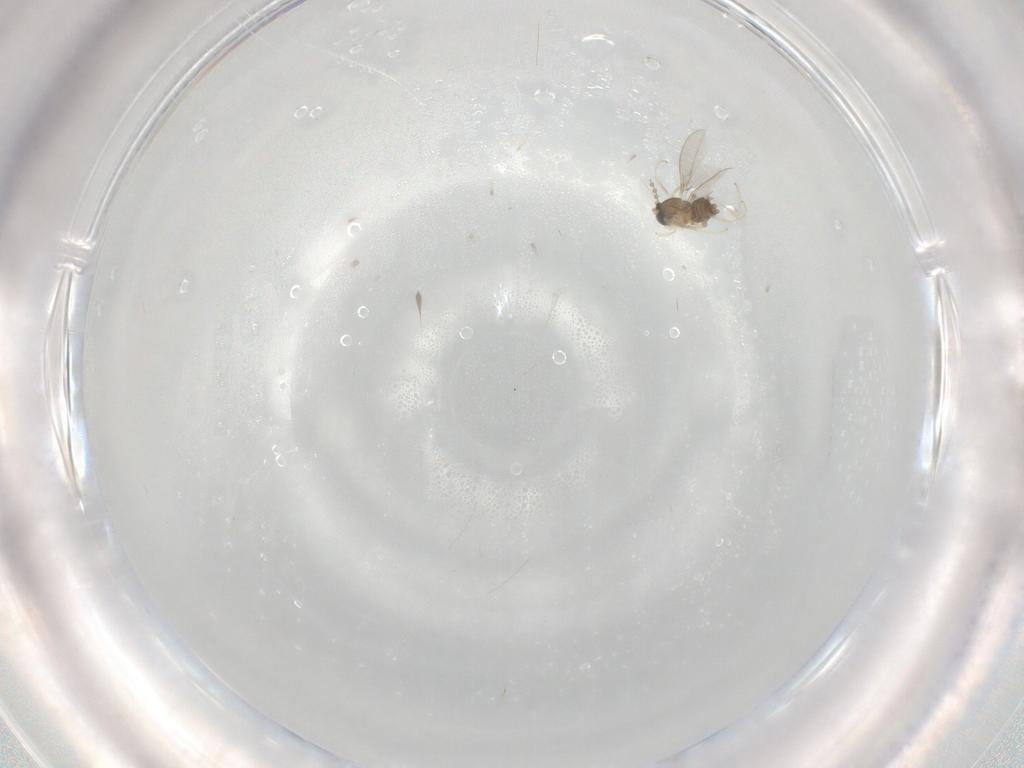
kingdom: Animalia
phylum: Arthropoda
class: Insecta
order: Diptera
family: Cecidomyiidae
